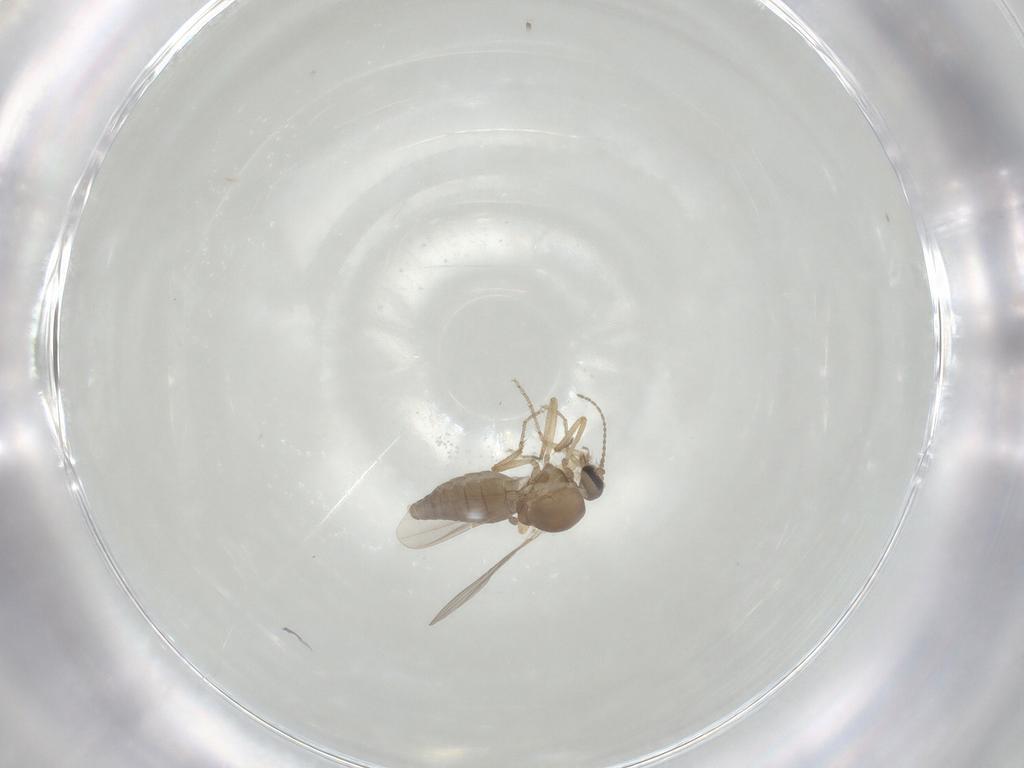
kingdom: Animalia
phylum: Arthropoda
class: Insecta
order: Diptera
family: Ceratopogonidae
